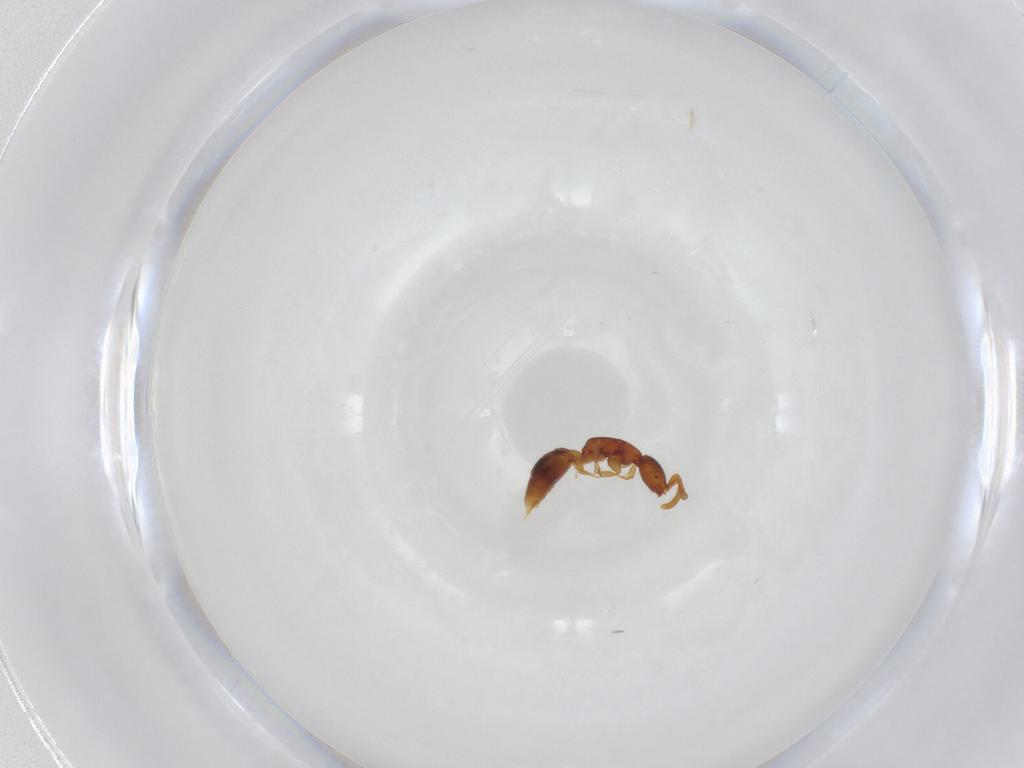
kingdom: Animalia
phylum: Arthropoda
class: Insecta
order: Hymenoptera
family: Bethylidae
